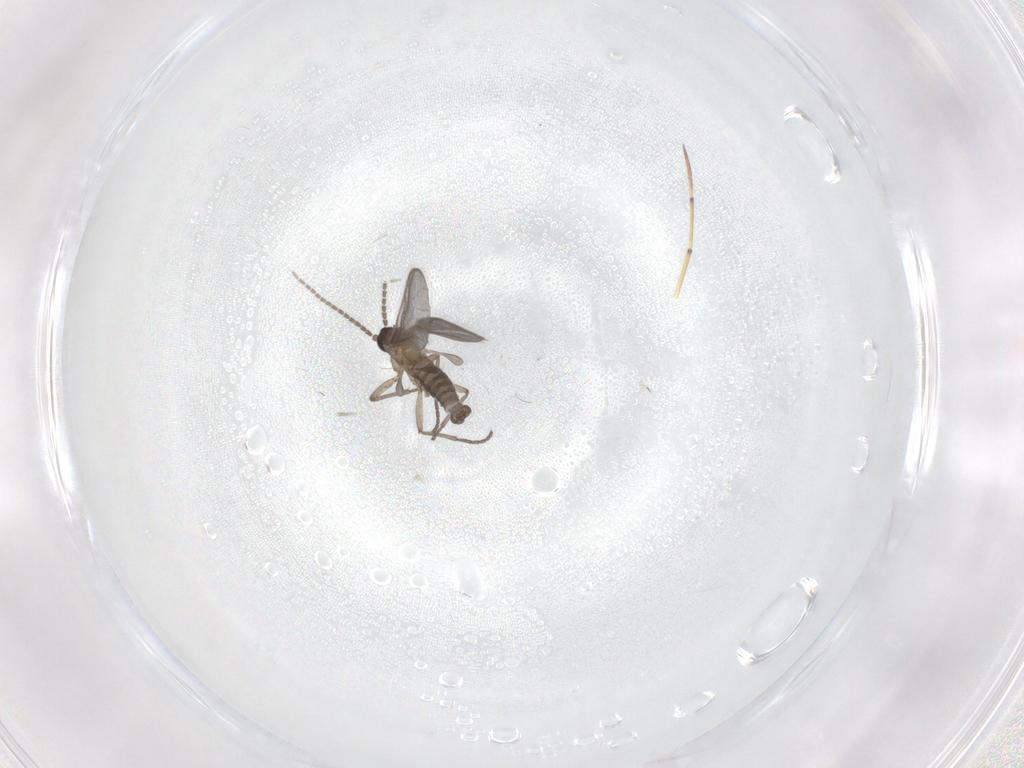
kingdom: Animalia
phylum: Arthropoda
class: Insecta
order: Diptera
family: Sciaridae
